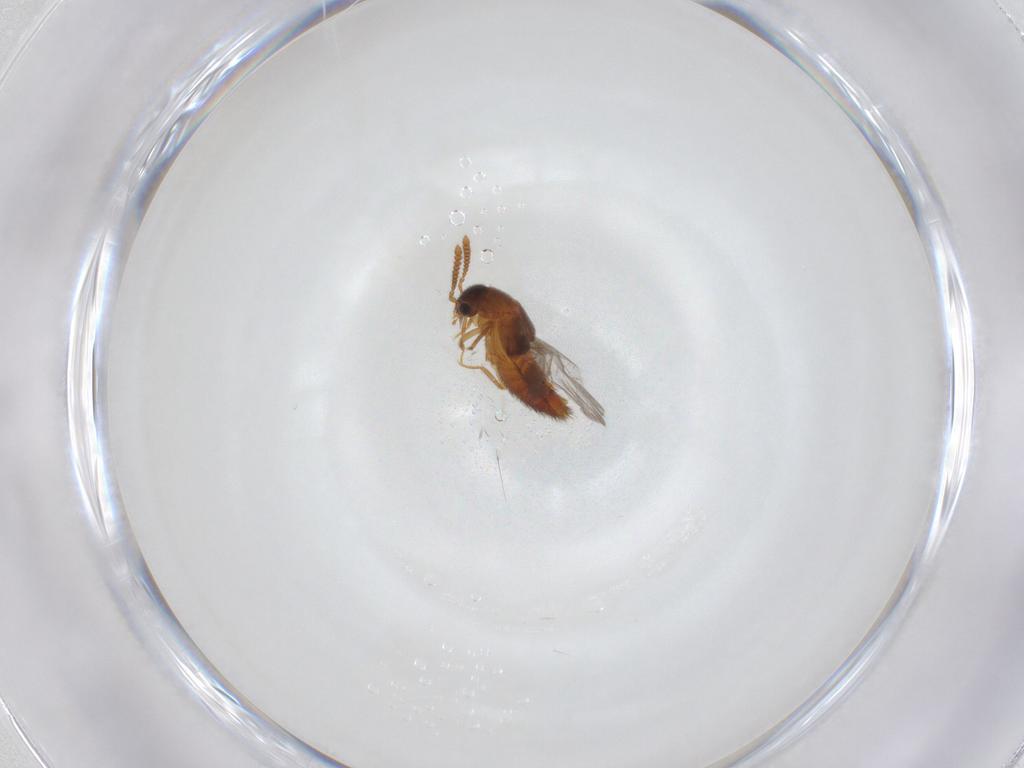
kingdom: Animalia
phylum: Arthropoda
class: Insecta
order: Coleoptera
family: Staphylinidae
